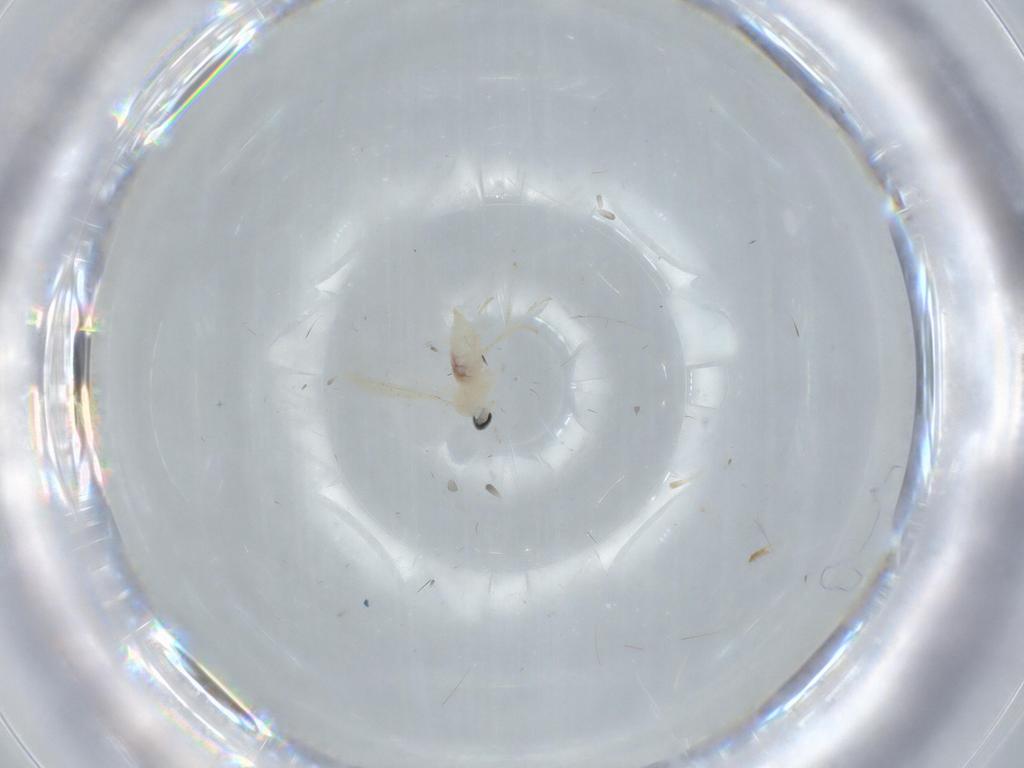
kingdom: Animalia
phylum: Arthropoda
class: Insecta
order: Diptera
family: Cecidomyiidae
